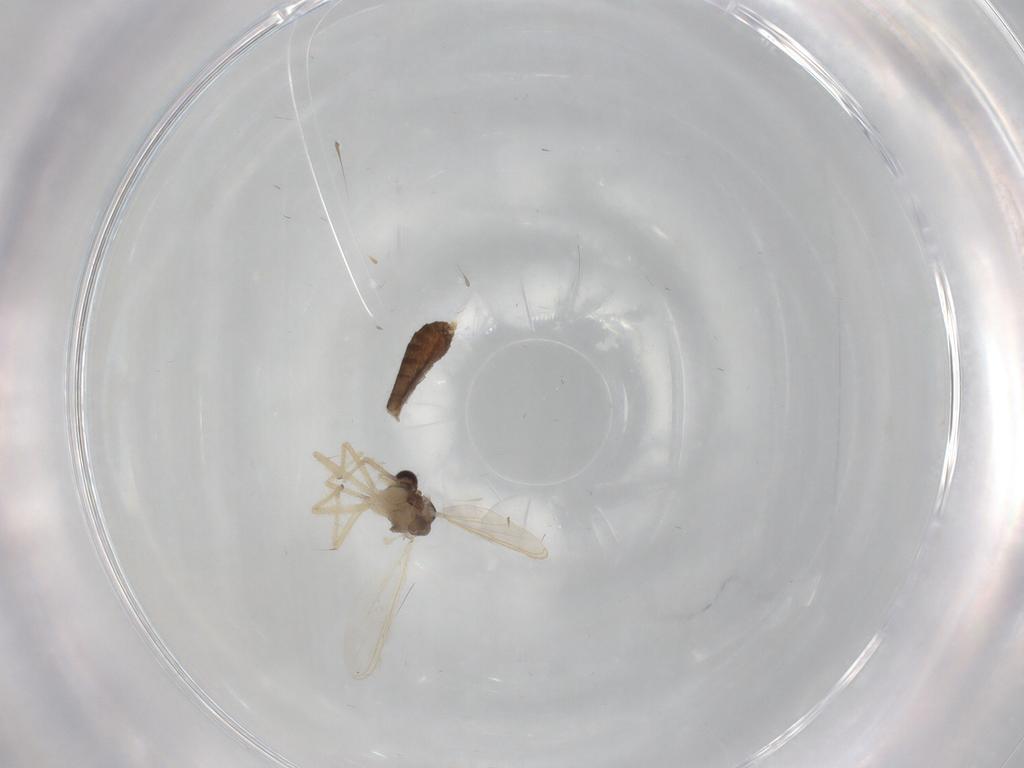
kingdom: Animalia
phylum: Arthropoda
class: Insecta
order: Diptera
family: Chironomidae
